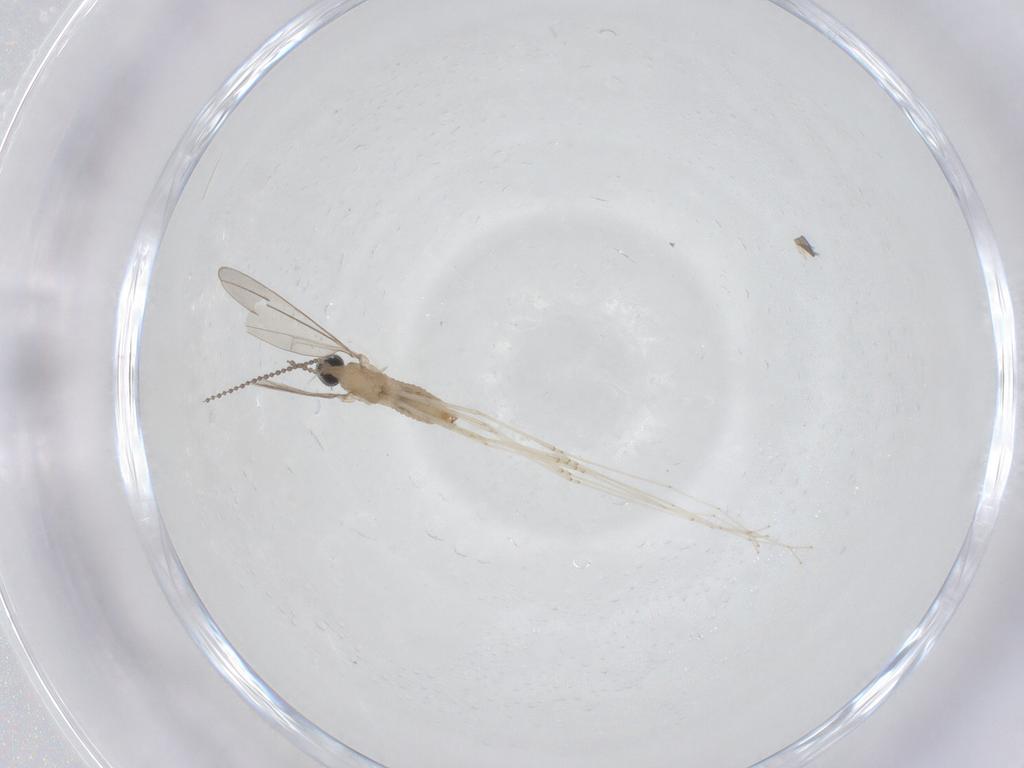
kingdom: Animalia
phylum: Arthropoda
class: Insecta
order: Diptera
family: Cecidomyiidae
